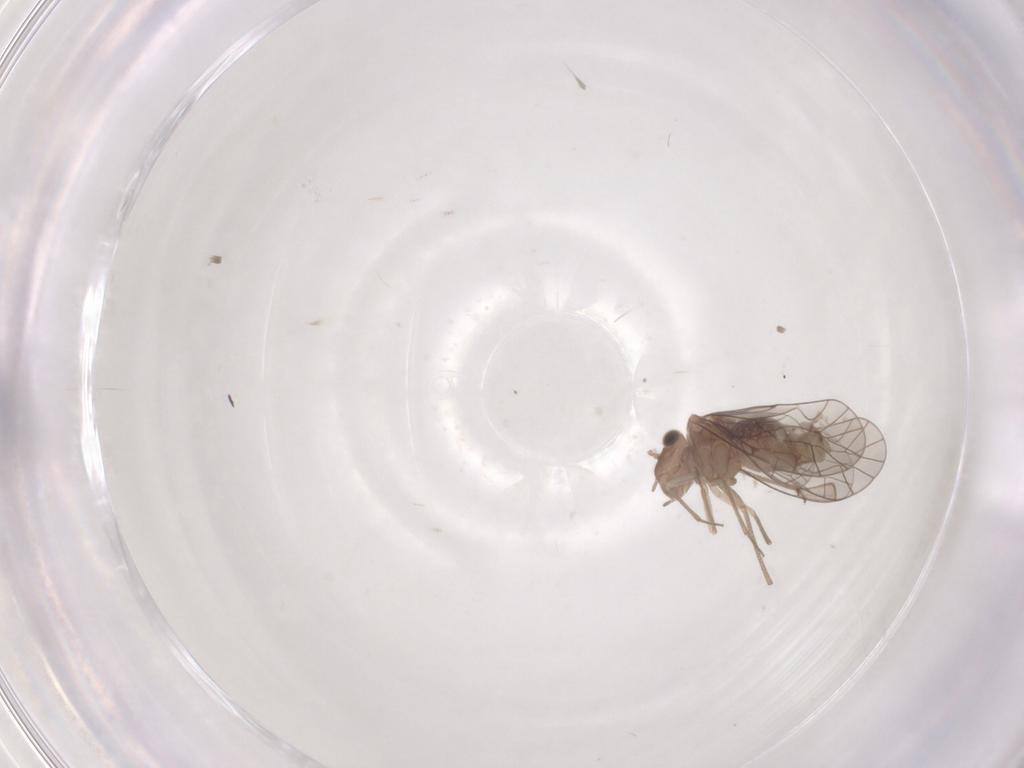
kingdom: Animalia
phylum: Arthropoda
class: Insecta
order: Psocodea
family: Lachesillidae
